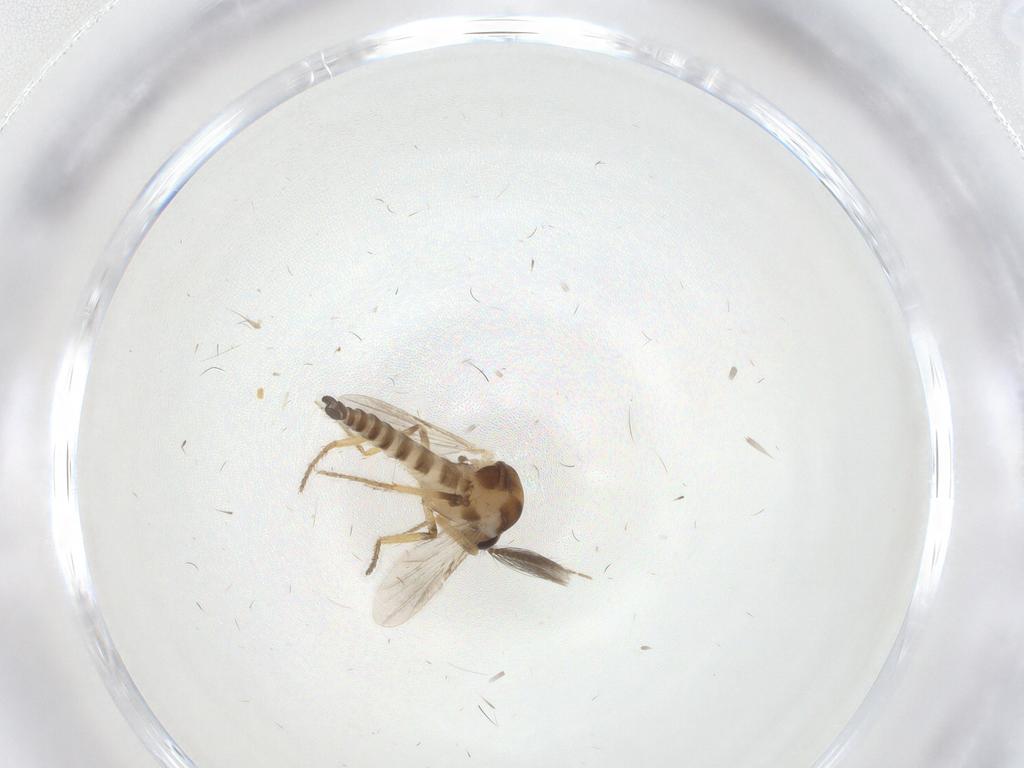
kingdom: Animalia
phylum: Arthropoda
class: Insecta
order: Diptera
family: Ceratopogonidae
